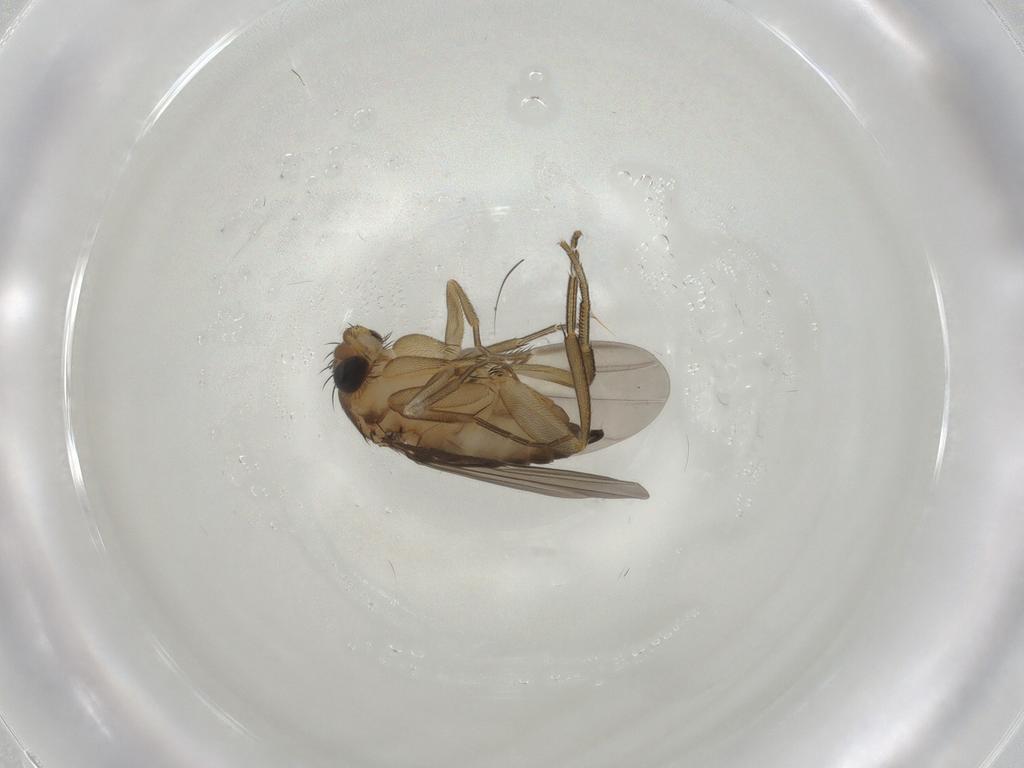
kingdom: Animalia
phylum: Arthropoda
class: Insecta
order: Diptera
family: Phoridae
